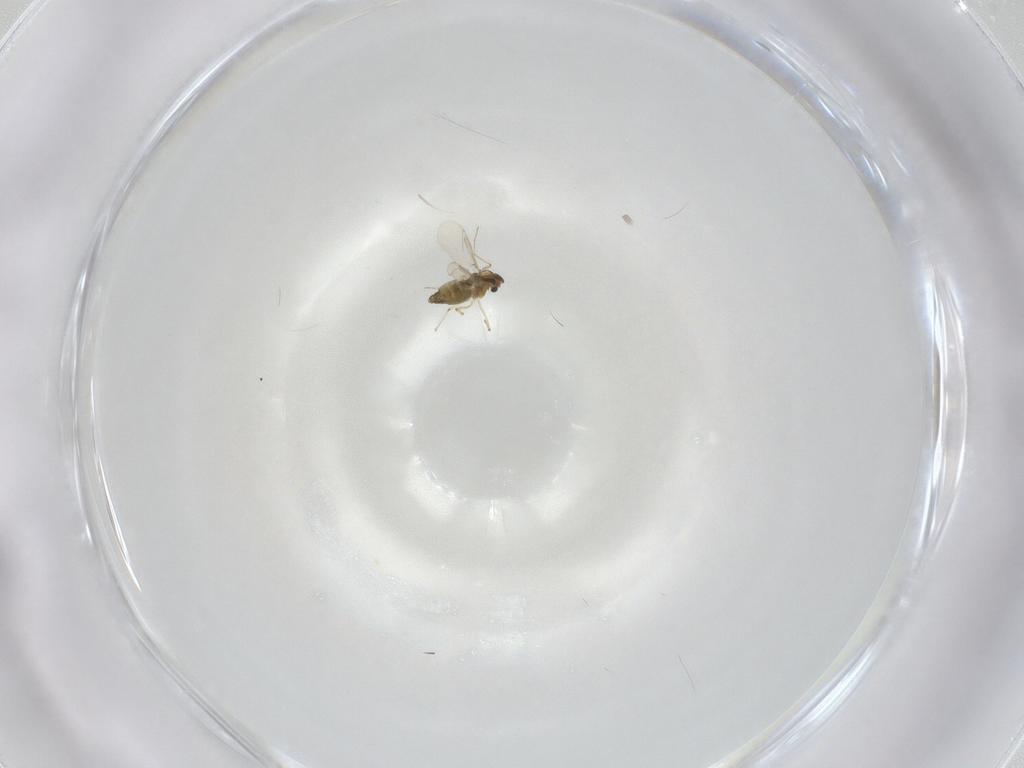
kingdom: Animalia
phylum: Arthropoda
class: Insecta
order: Diptera
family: Chironomidae
